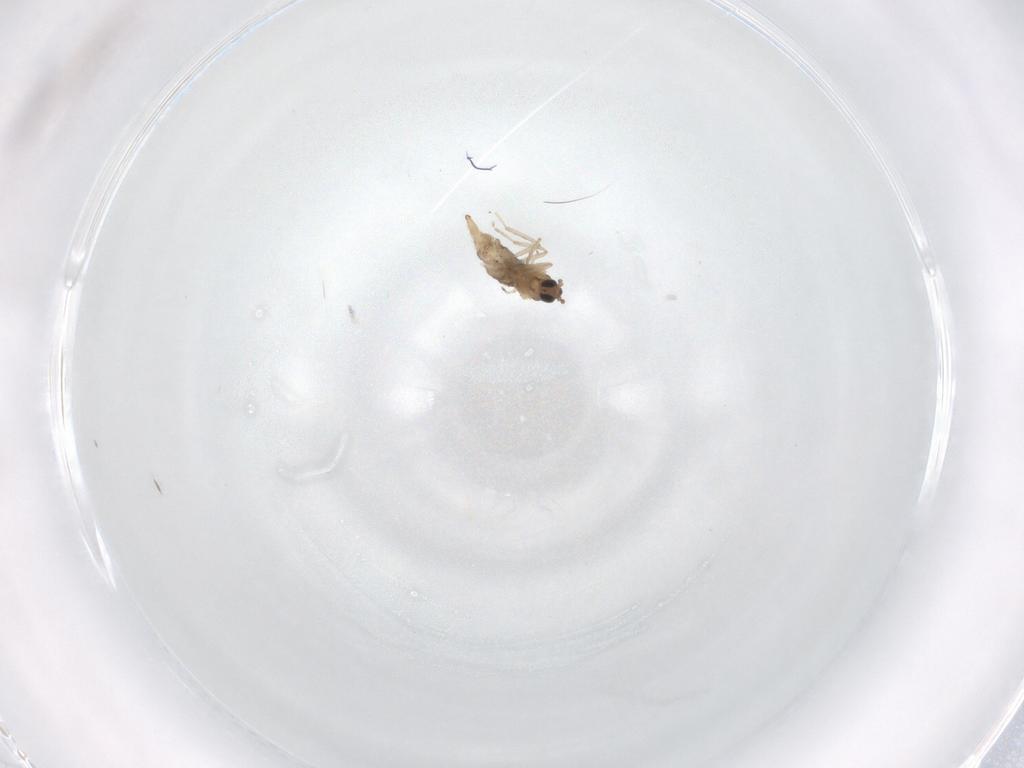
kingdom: Animalia
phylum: Arthropoda
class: Insecta
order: Diptera
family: Cecidomyiidae
